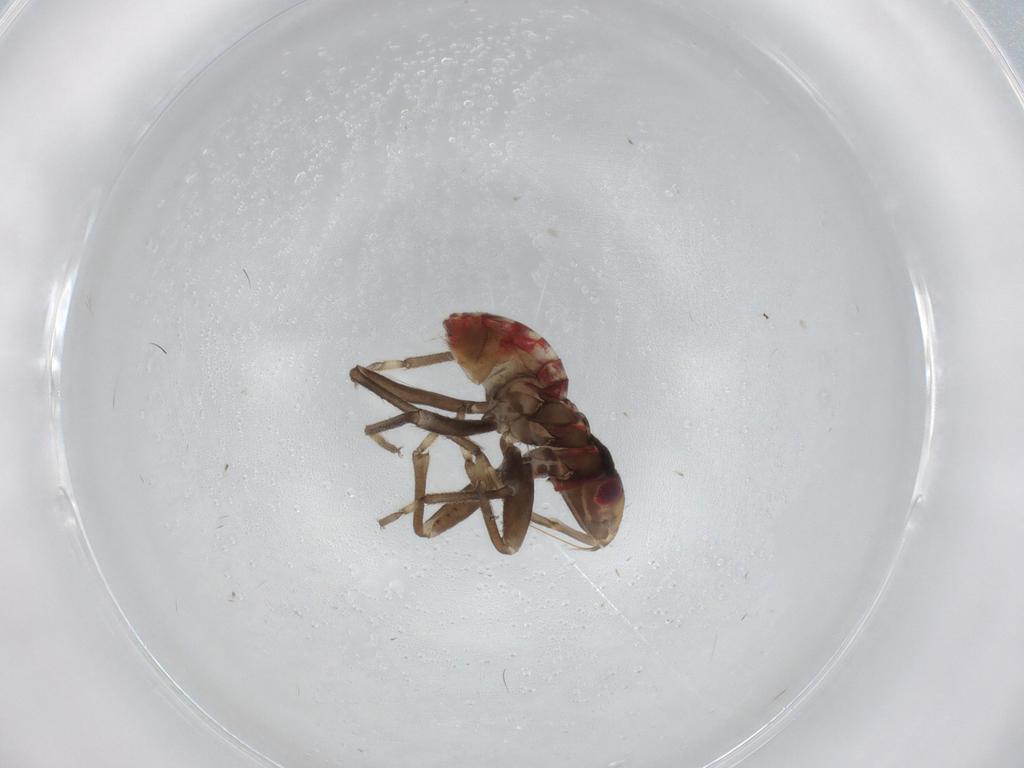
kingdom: Animalia
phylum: Arthropoda
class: Insecta
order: Hemiptera
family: Rhyparochromidae
